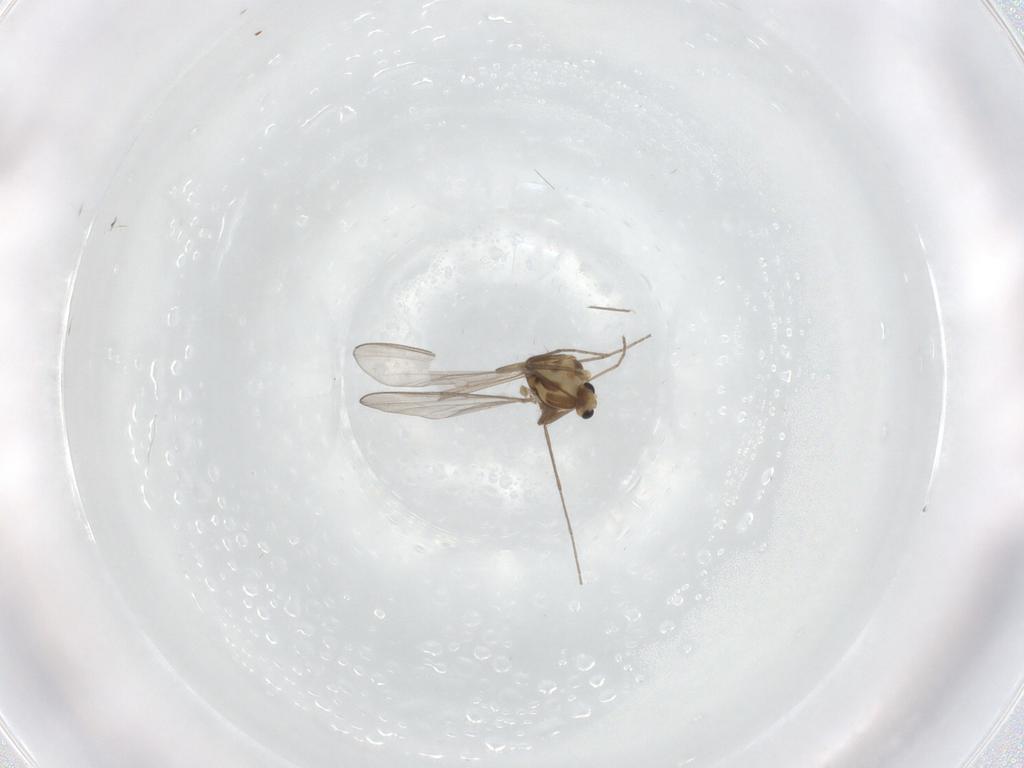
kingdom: Animalia
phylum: Arthropoda
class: Insecta
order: Diptera
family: Chironomidae
